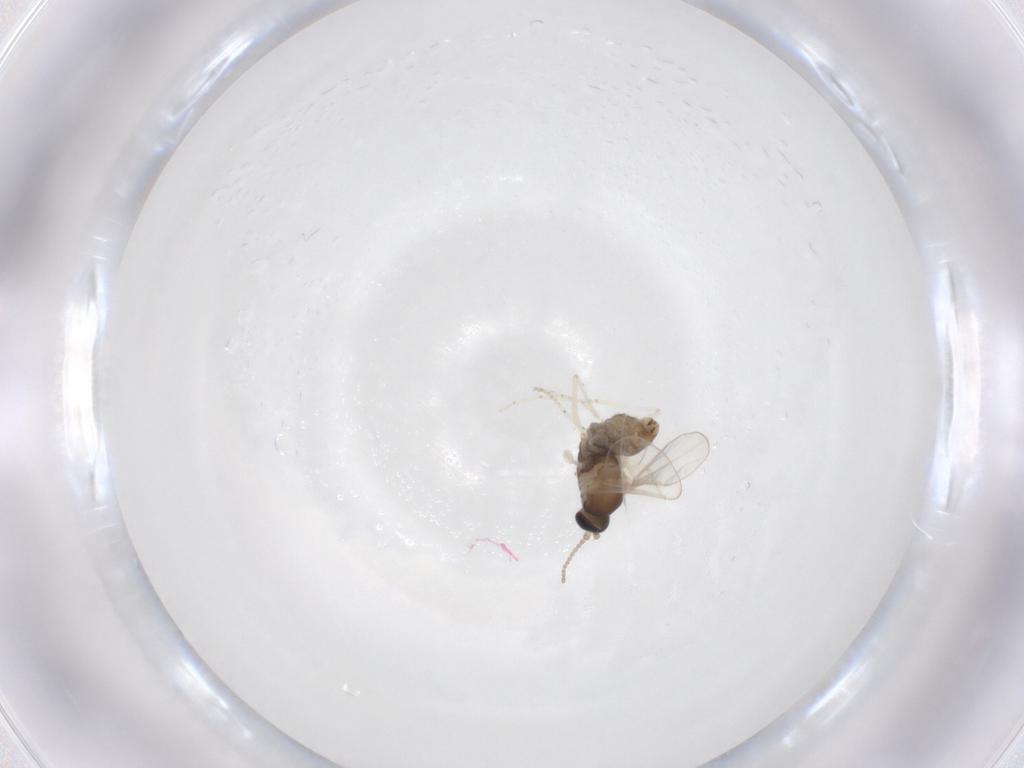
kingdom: Animalia
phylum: Arthropoda
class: Insecta
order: Diptera
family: Cecidomyiidae
